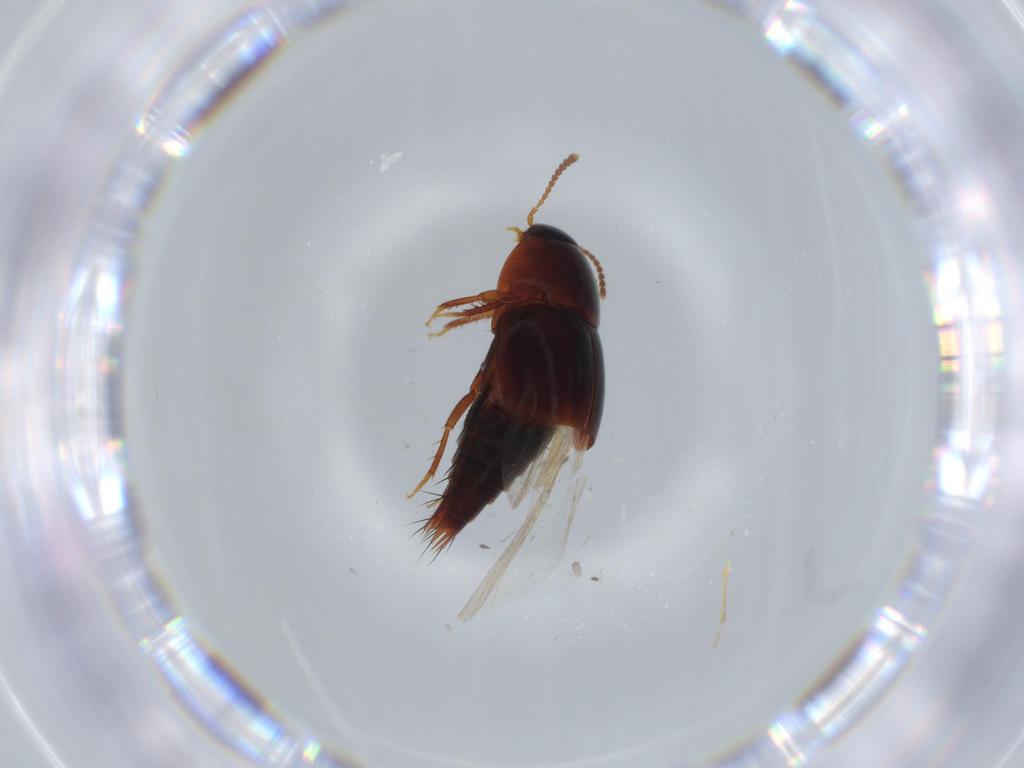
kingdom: Animalia
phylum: Arthropoda
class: Insecta
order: Coleoptera
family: Staphylinidae
